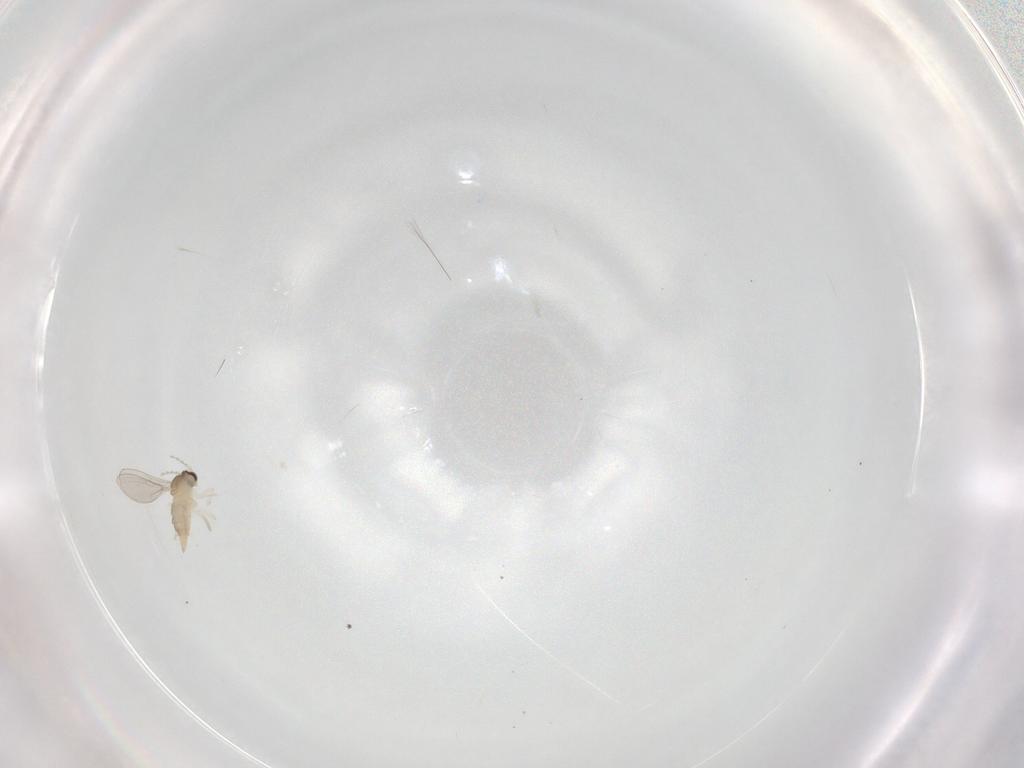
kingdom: Animalia
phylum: Arthropoda
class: Insecta
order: Diptera
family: Cecidomyiidae
